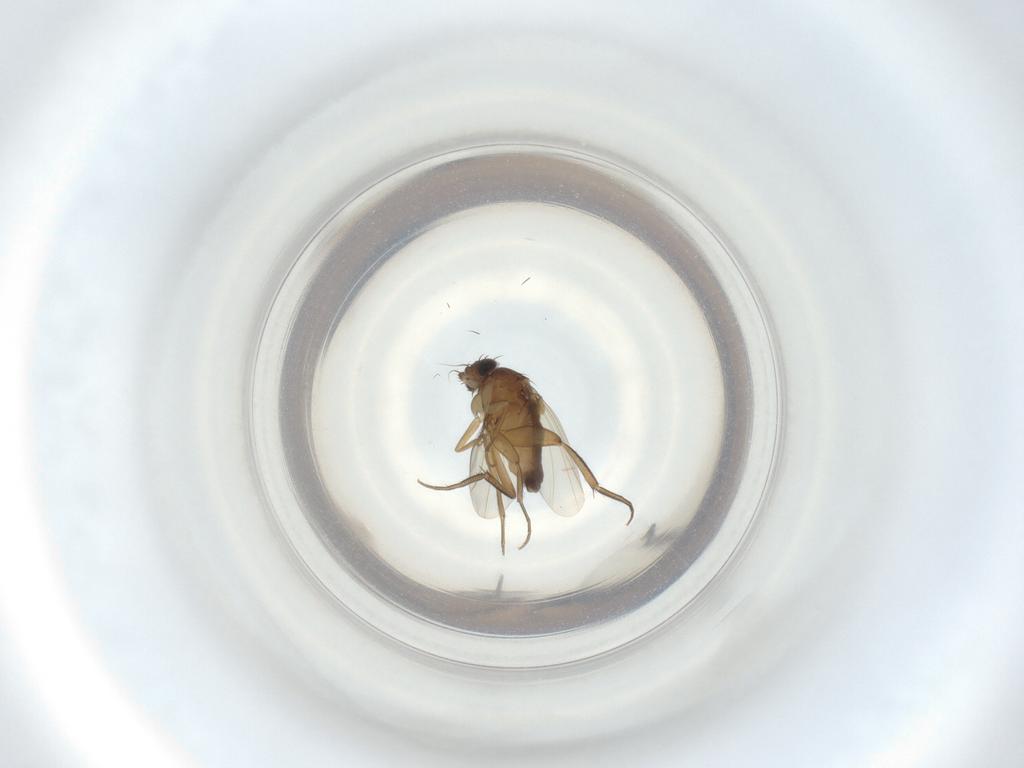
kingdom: Animalia
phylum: Arthropoda
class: Insecta
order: Diptera
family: Phoridae
